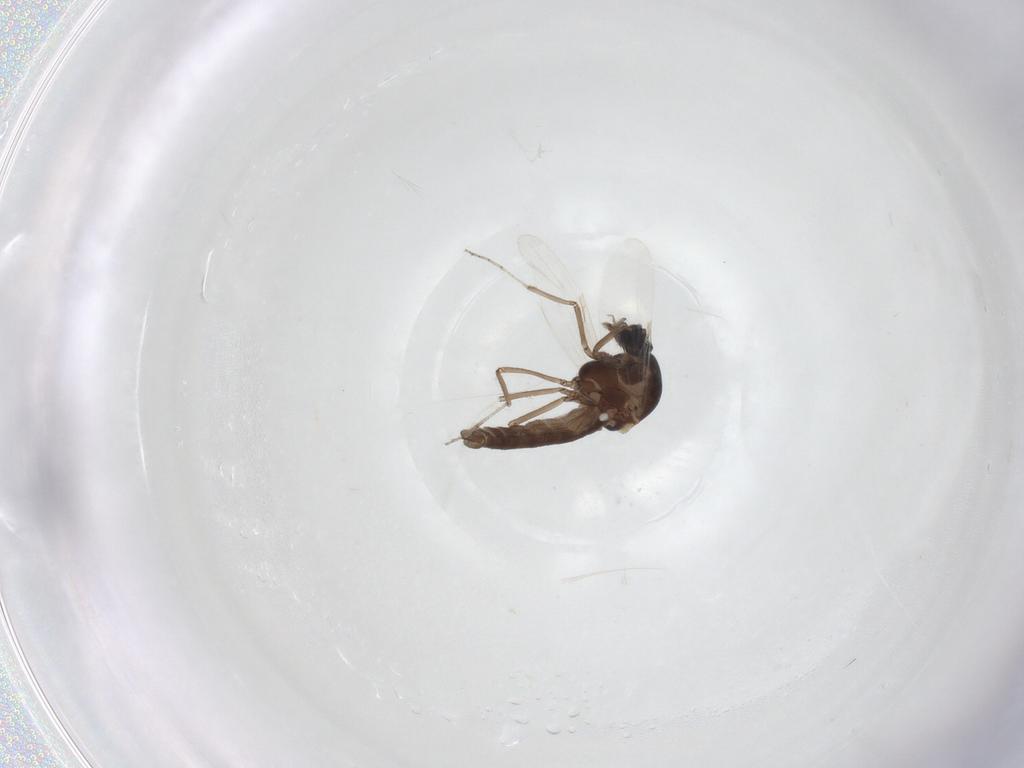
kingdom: Animalia
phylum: Arthropoda
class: Insecta
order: Diptera
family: Ceratopogonidae
